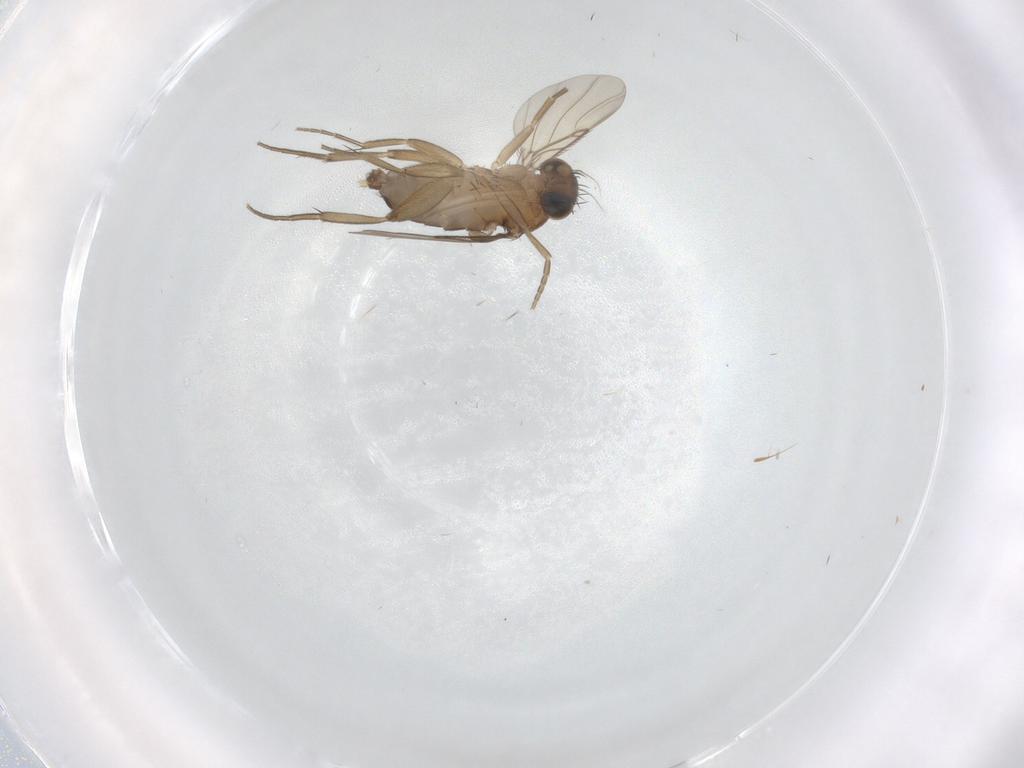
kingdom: Animalia
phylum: Arthropoda
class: Insecta
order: Diptera
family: Phoridae
